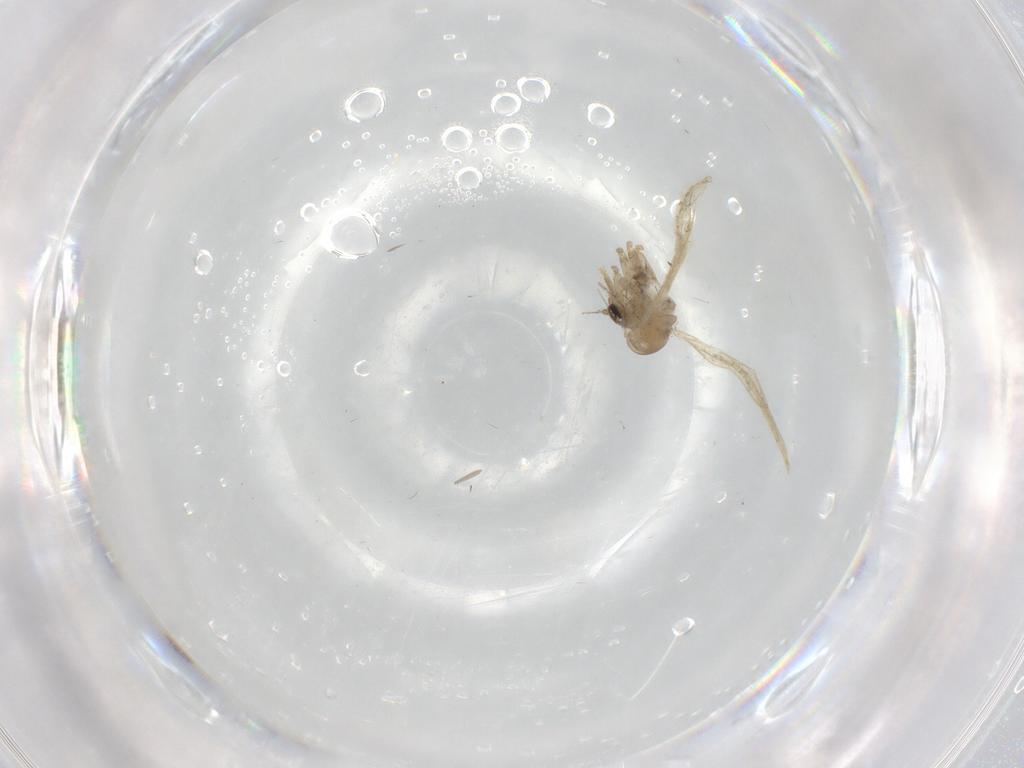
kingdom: Animalia
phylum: Arthropoda
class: Insecta
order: Diptera
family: Sciaridae
